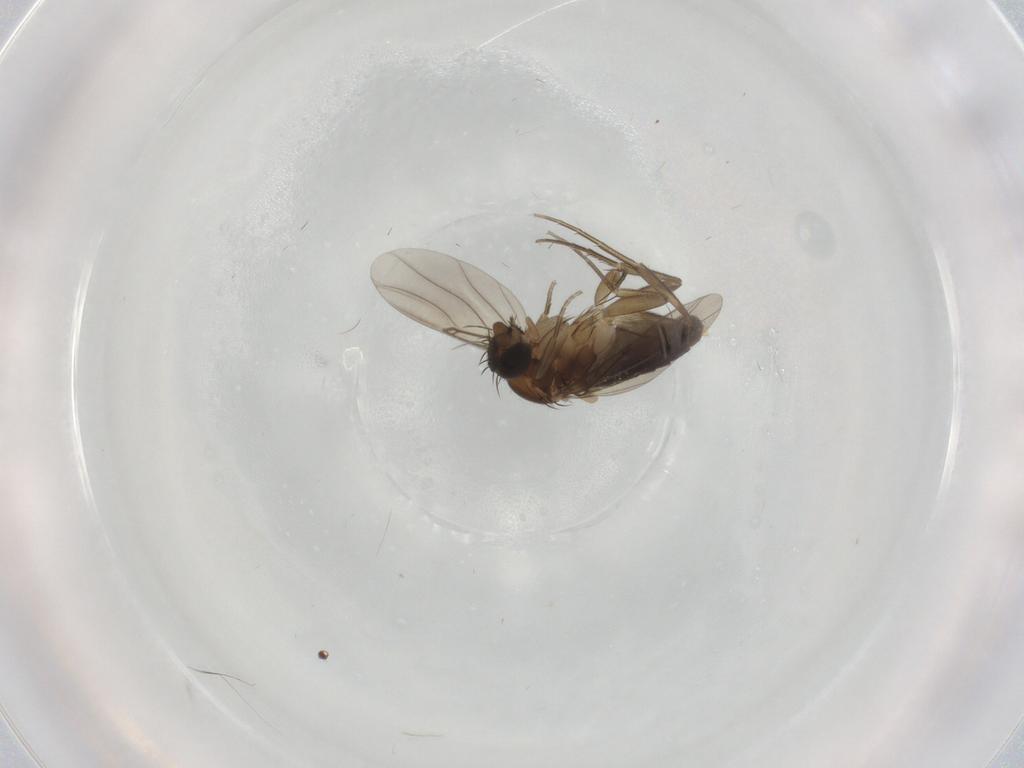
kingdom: Animalia
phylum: Arthropoda
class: Insecta
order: Diptera
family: Phoridae
